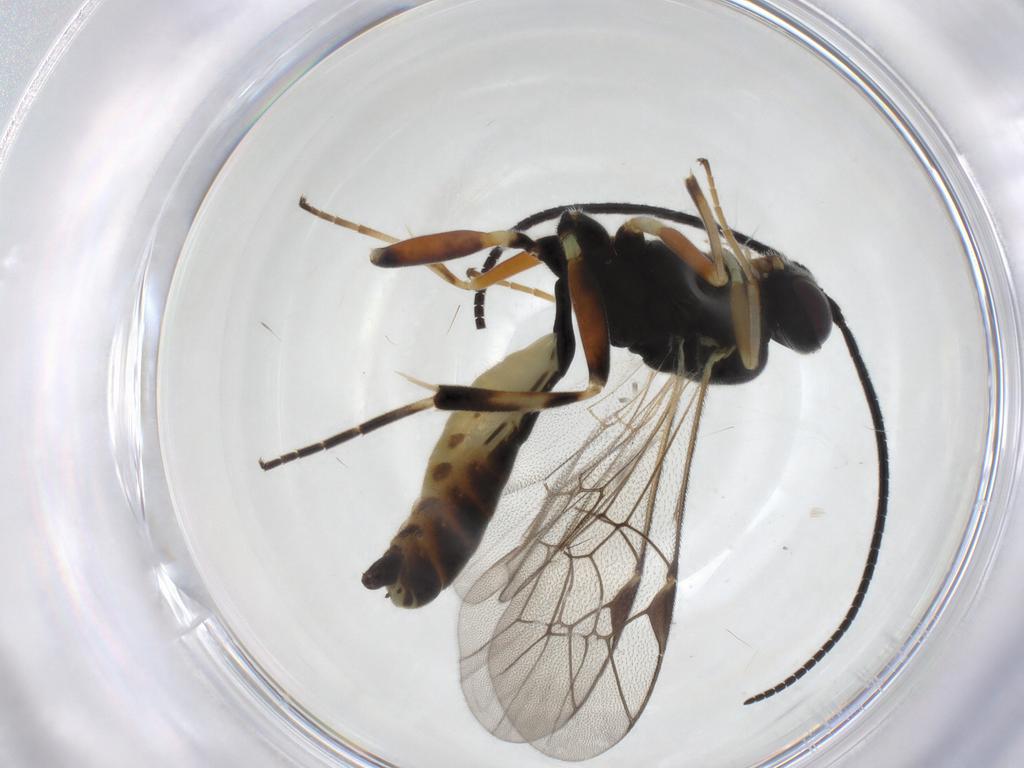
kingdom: Animalia
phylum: Arthropoda
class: Insecta
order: Hymenoptera
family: Ichneumonidae
